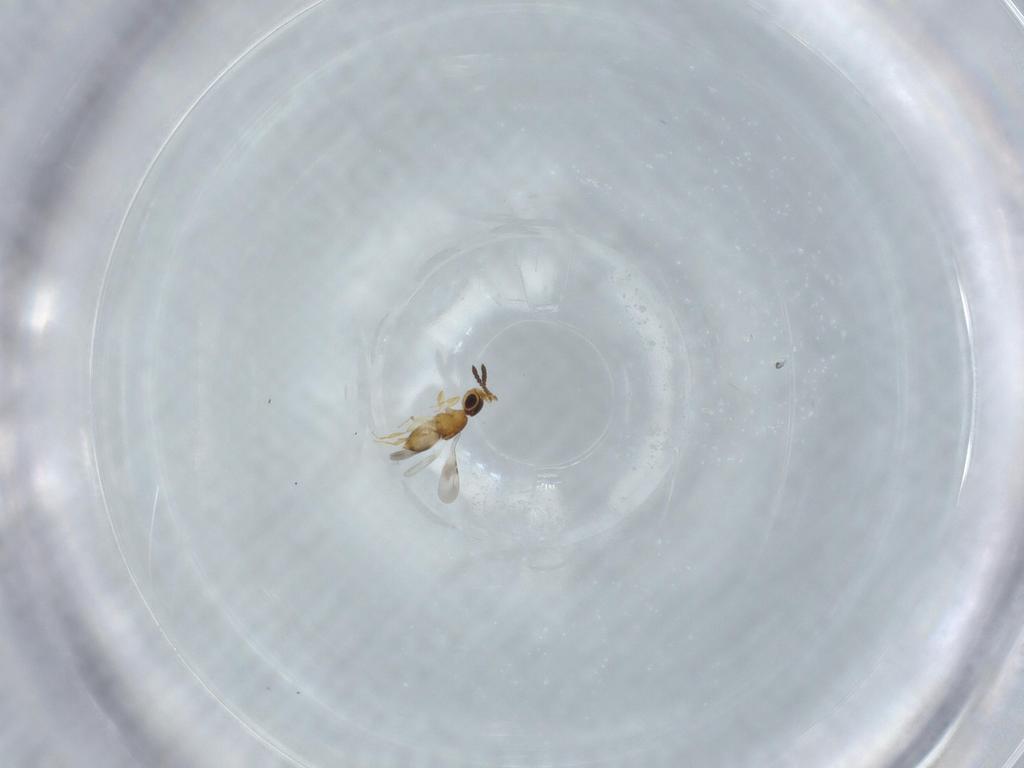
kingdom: Animalia
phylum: Arthropoda
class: Insecta
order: Hymenoptera
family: Ceraphronidae
